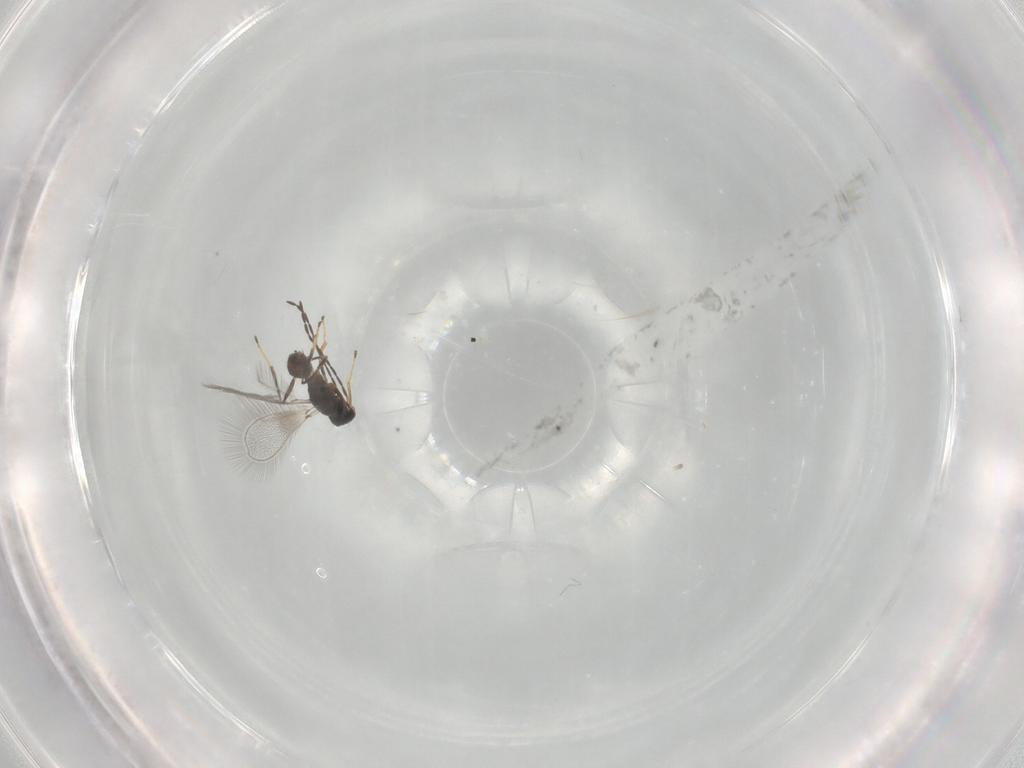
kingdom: Animalia
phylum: Arthropoda
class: Insecta
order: Hymenoptera
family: Mymaridae
